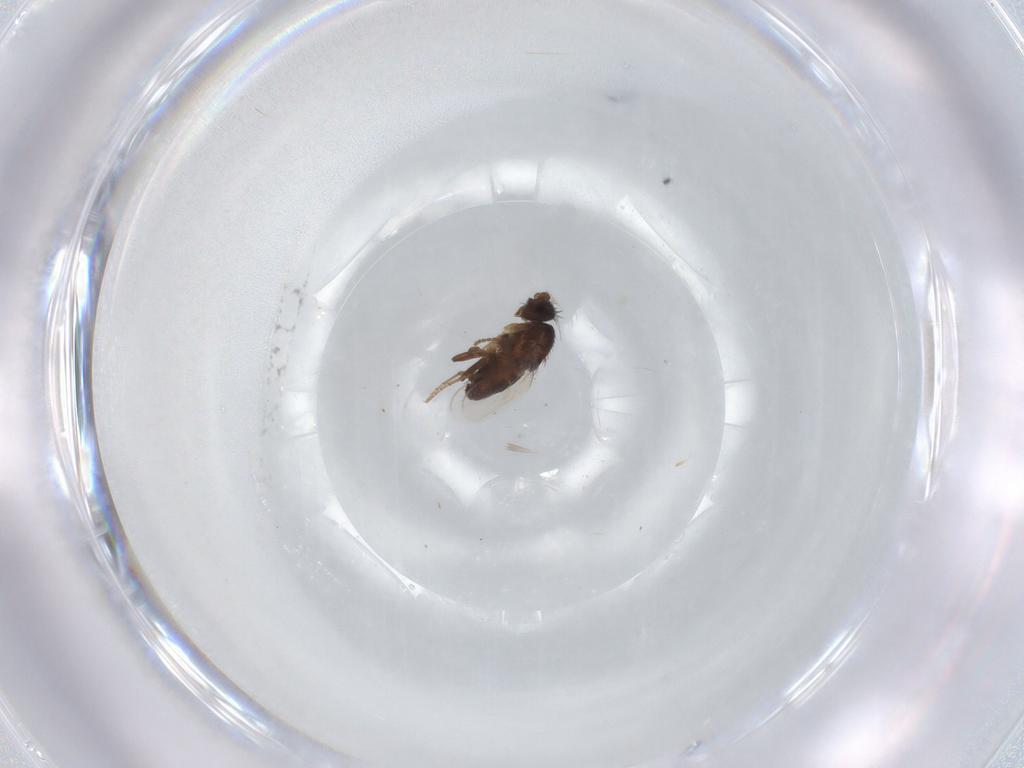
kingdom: Animalia
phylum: Arthropoda
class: Insecta
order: Diptera
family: Sphaeroceridae
